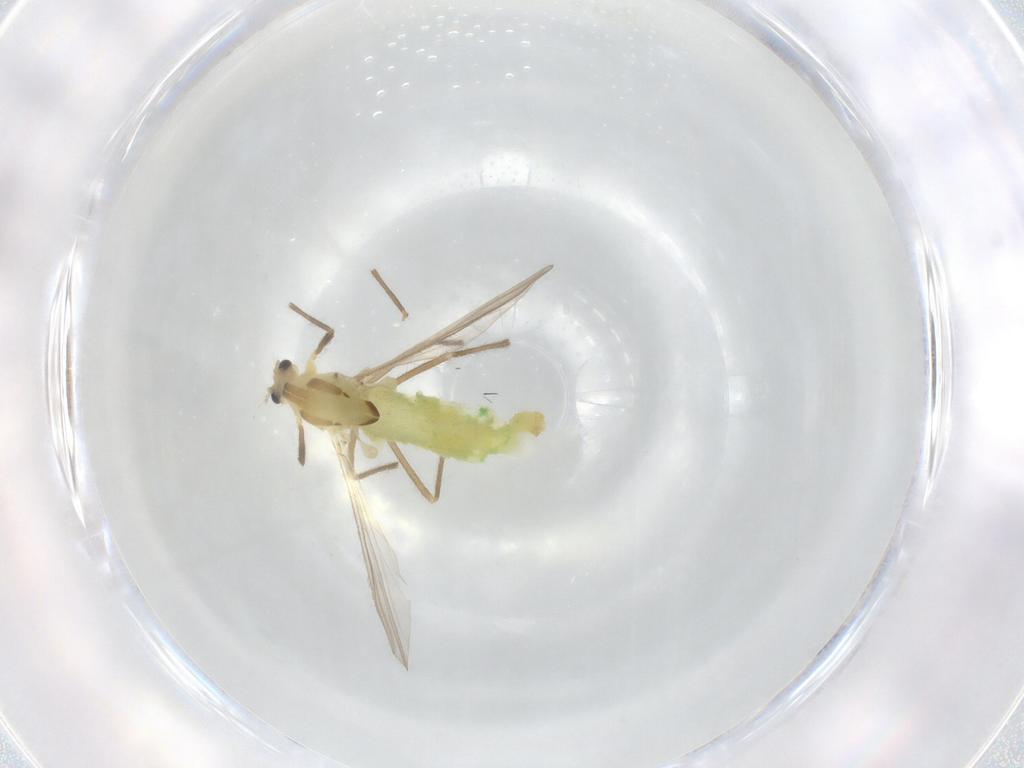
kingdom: Animalia
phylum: Arthropoda
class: Insecta
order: Diptera
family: Chironomidae
